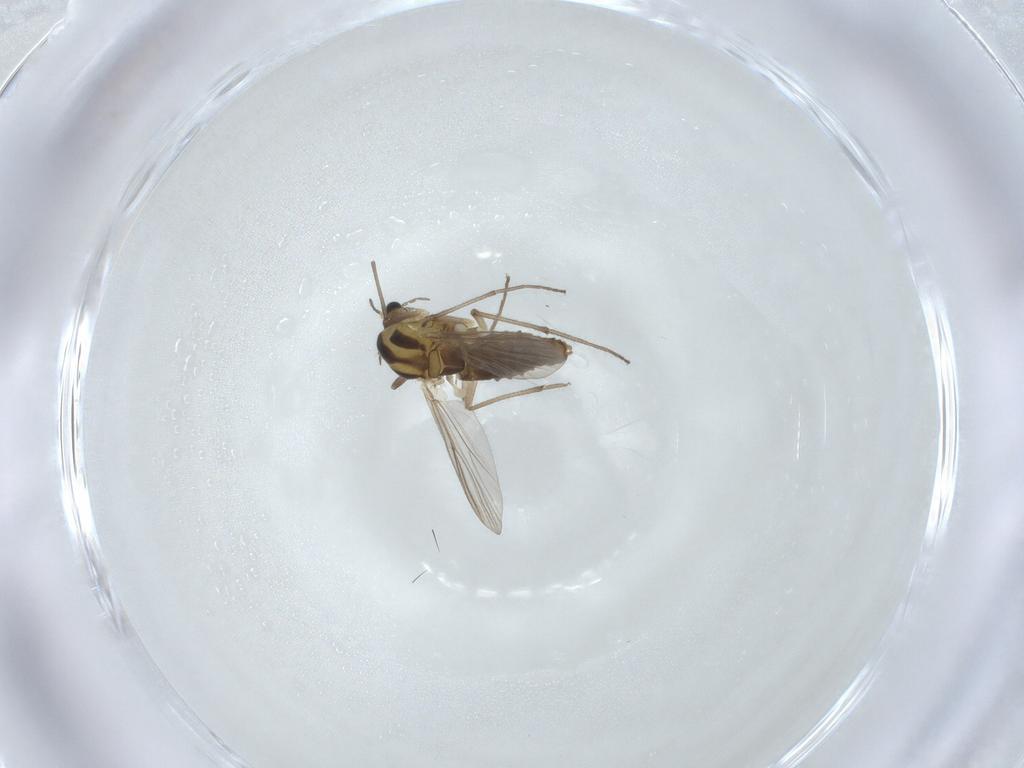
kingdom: Animalia
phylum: Arthropoda
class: Insecta
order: Diptera
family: Chironomidae
